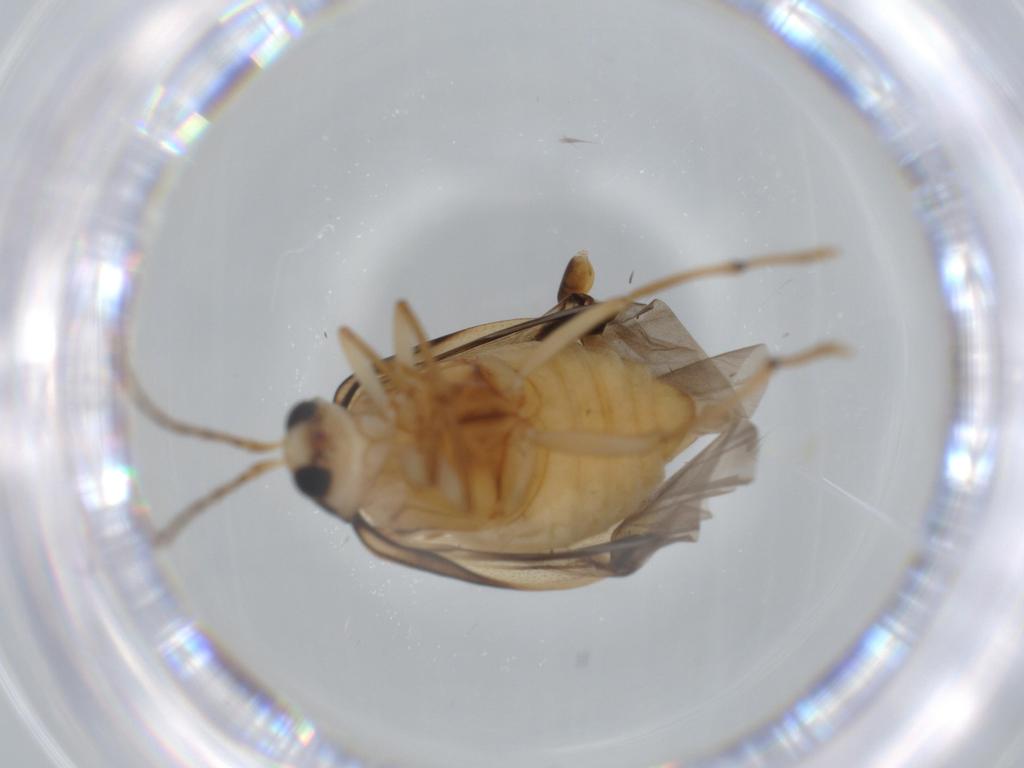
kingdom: Animalia
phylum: Arthropoda
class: Insecta
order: Coleoptera
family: Chrysomelidae
